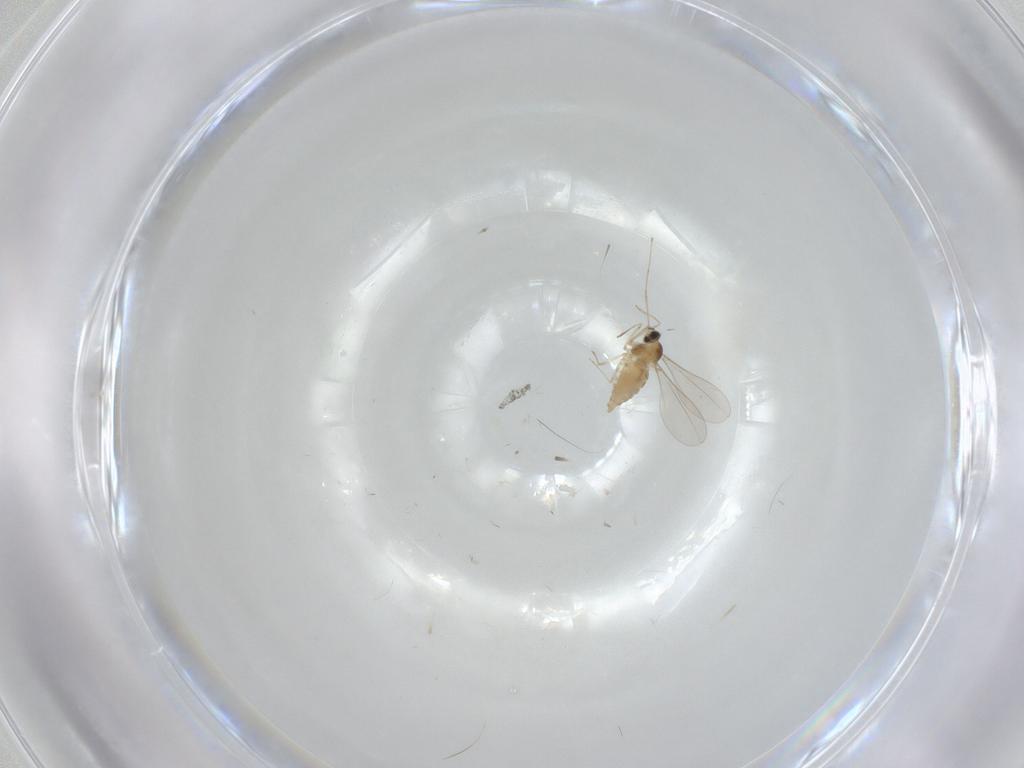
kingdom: Animalia
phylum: Arthropoda
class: Insecta
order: Diptera
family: Cecidomyiidae
